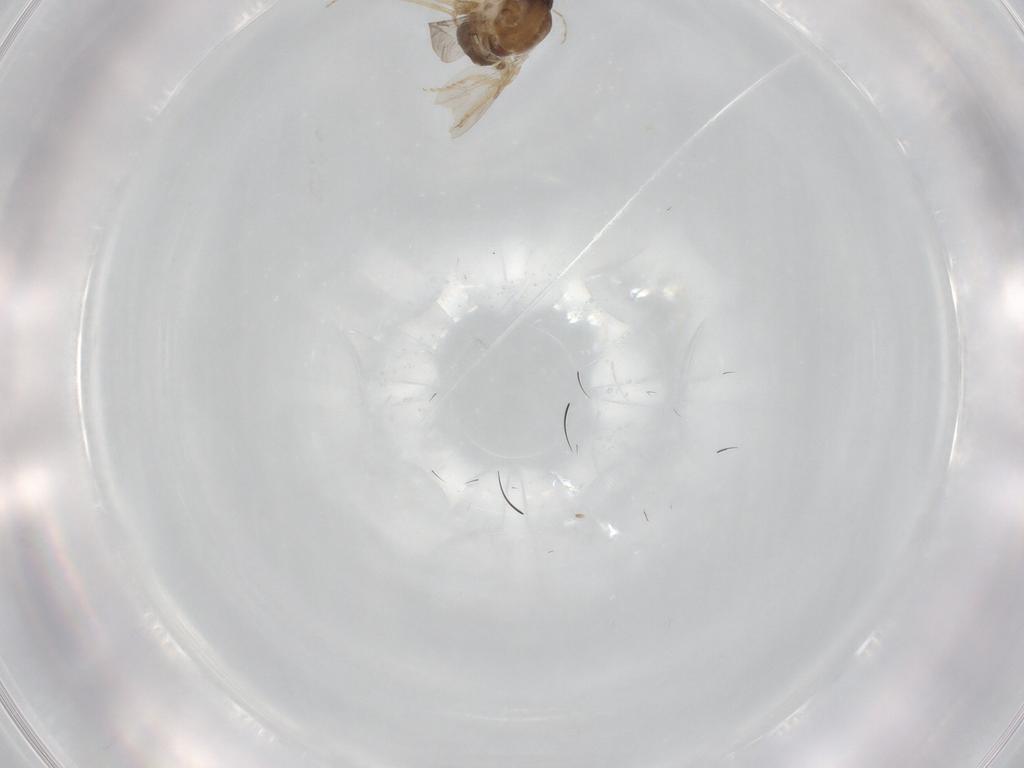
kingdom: Animalia
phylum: Arthropoda
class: Insecta
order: Diptera
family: Ceratopogonidae
